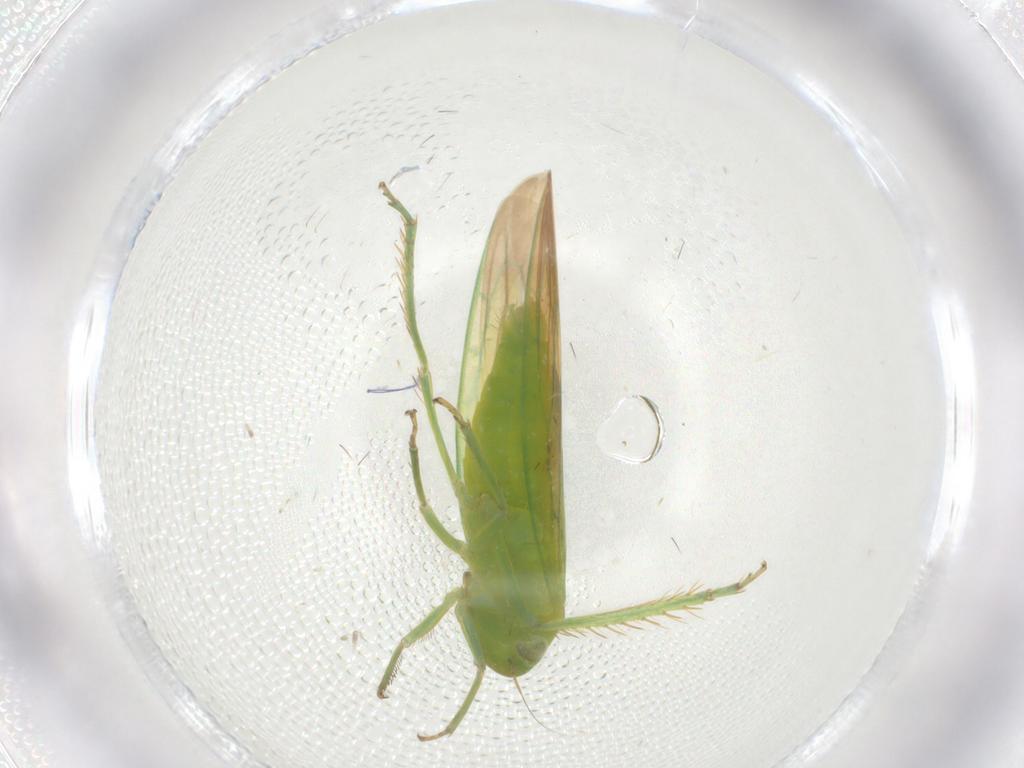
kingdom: Animalia
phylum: Arthropoda
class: Insecta
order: Hemiptera
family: Cicadellidae
